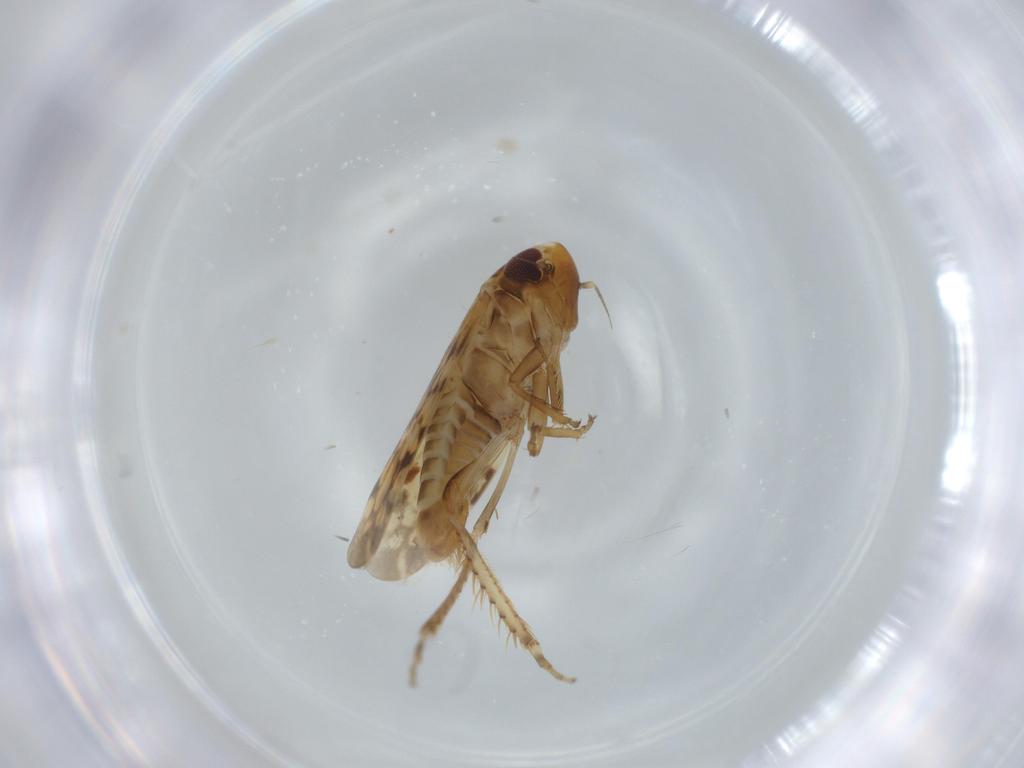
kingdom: Animalia
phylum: Arthropoda
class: Insecta
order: Hemiptera
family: Cicadellidae
